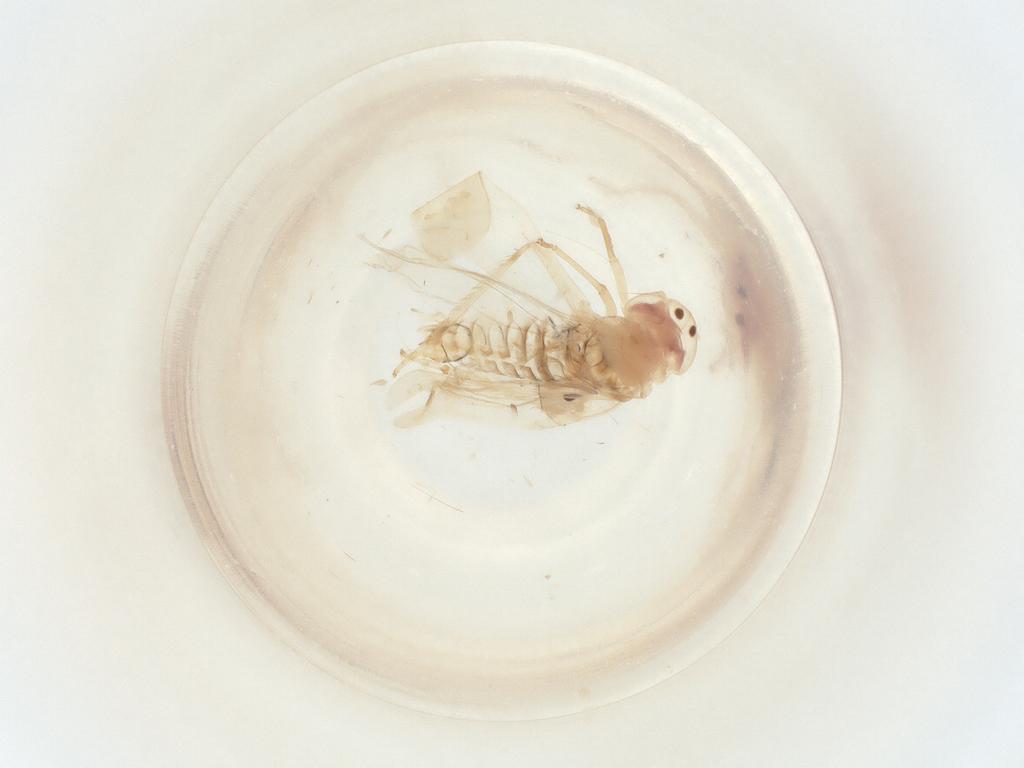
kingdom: Animalia
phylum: Arthropoda
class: Insecta
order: Hemiptera
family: Cicadellidae
